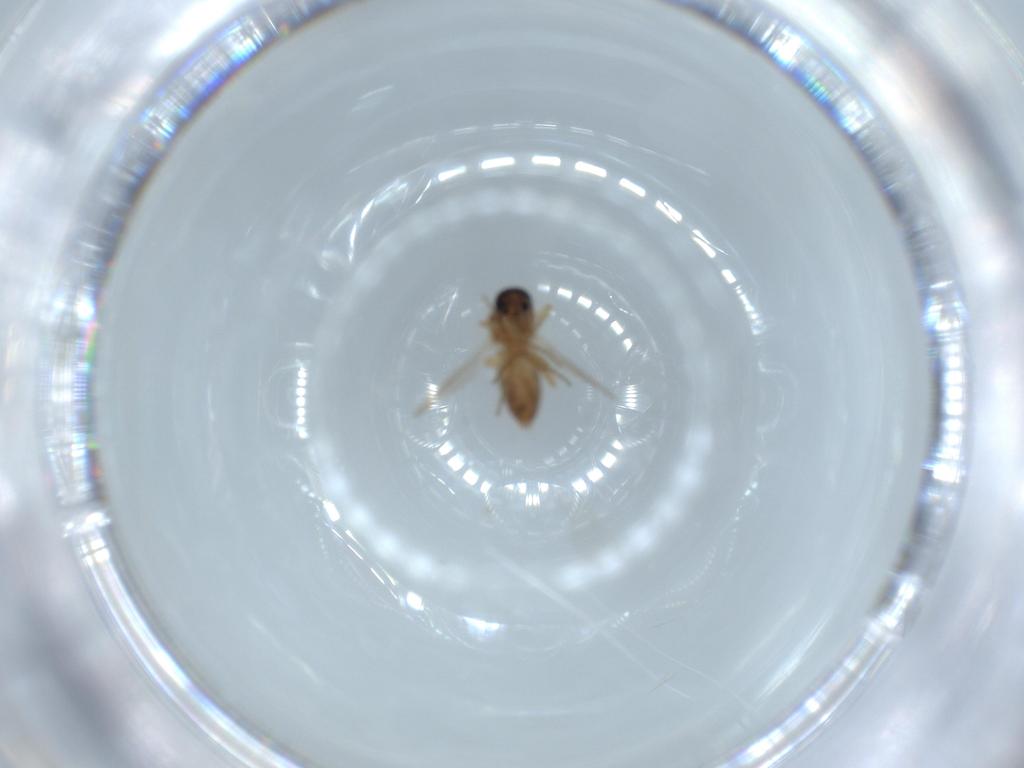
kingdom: Animalia
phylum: Arthropoda
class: Insecta
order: Diptera
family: Ceratopogonidae
